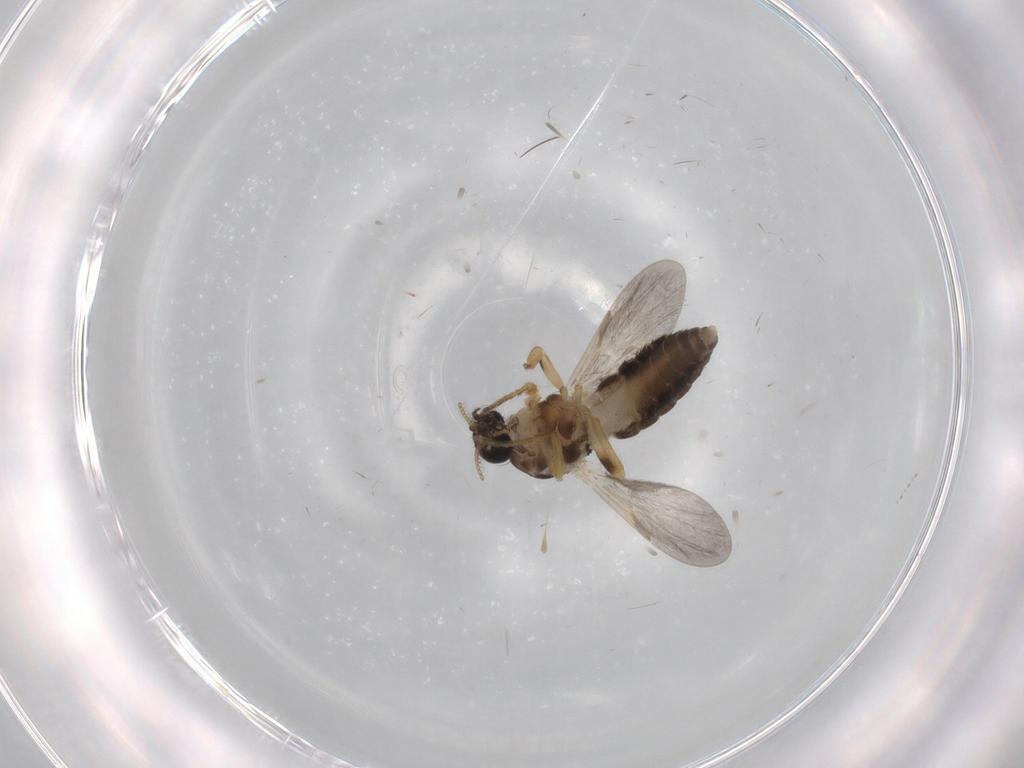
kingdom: Animalia
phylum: Arthropoda
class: Insecta
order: Diptera
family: Ceratopogonidae
